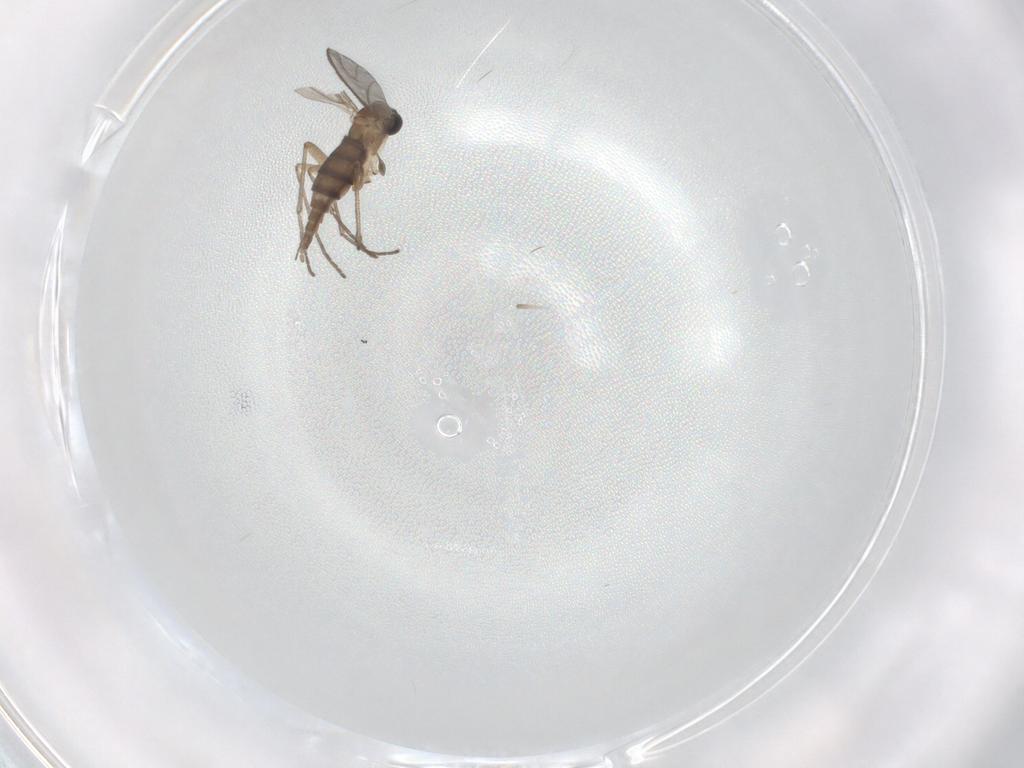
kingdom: Animalia
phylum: Arthropoda
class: Insecta
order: Diptera
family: Sciaridae
